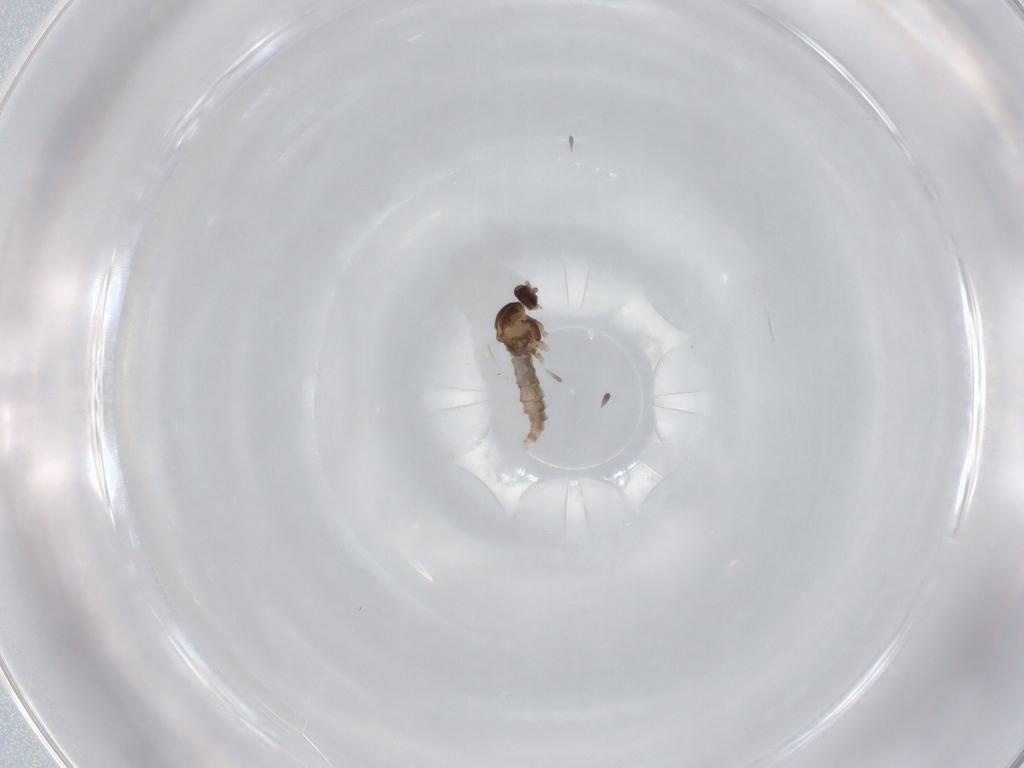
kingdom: Animalia
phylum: Arthropoda
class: Insecta
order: Diptera
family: Cecidomyiidae
